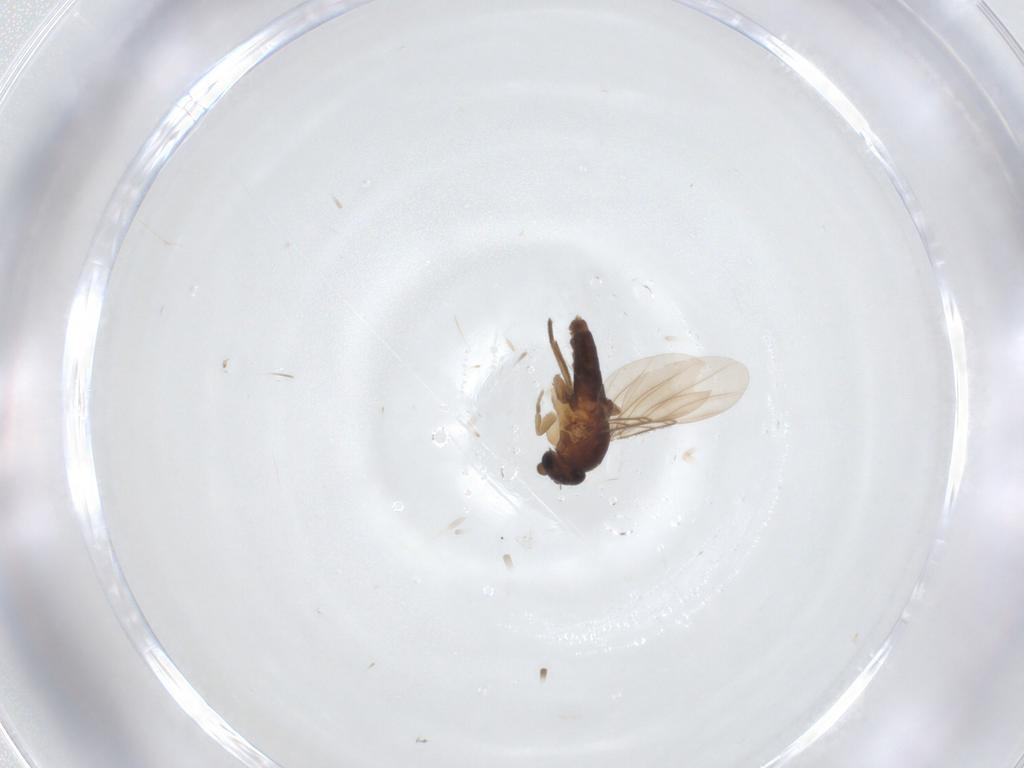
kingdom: Animalia
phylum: Arthropoda
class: Insecta
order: Diptera
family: Phoridae
